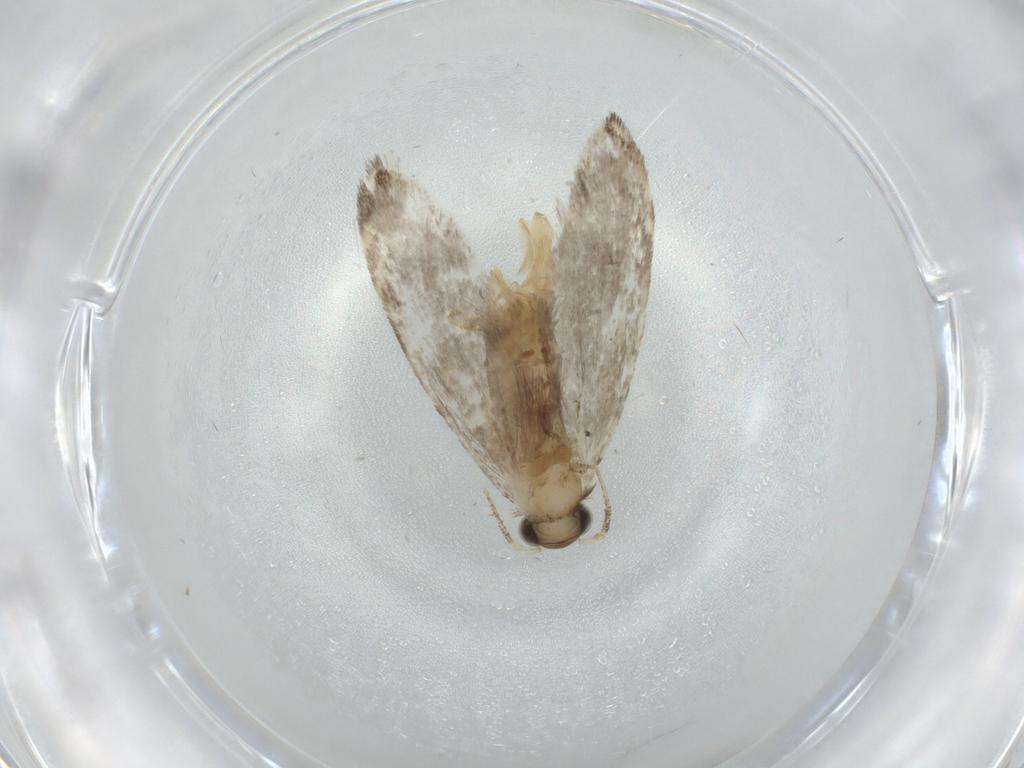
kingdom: Animalia
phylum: Arthropoda
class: Insecta
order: Lepidoptera
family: Tineidae
